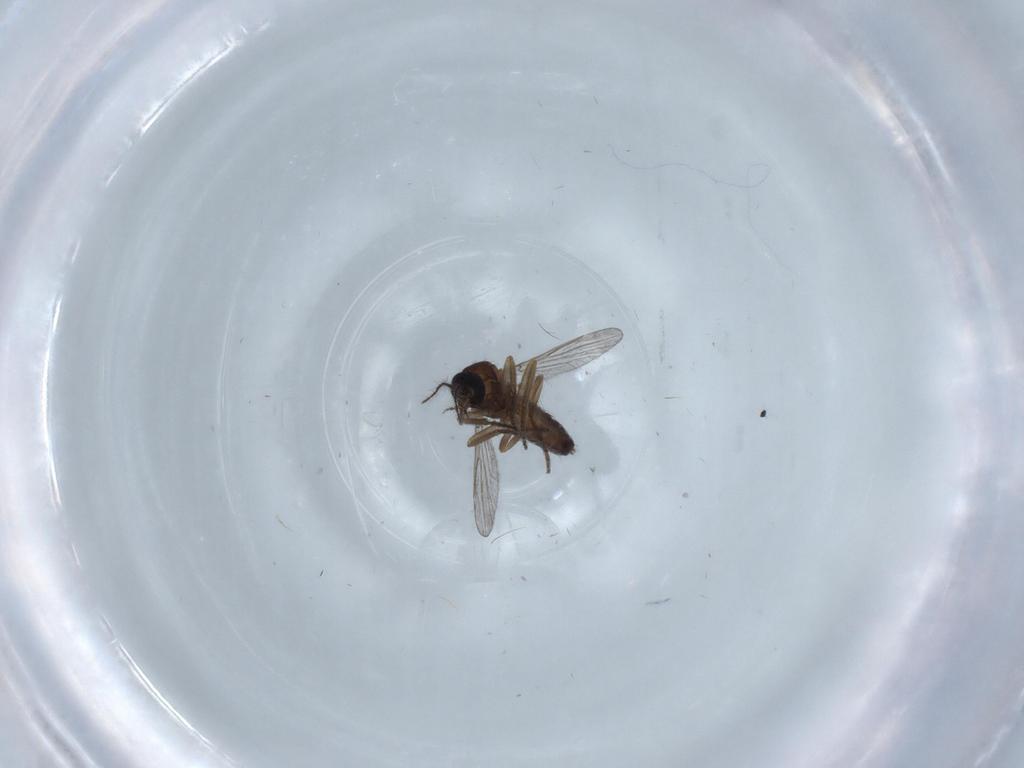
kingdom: Animalia
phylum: Arthropoda
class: Insecta
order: Diptera
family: Cecidomyiidae
